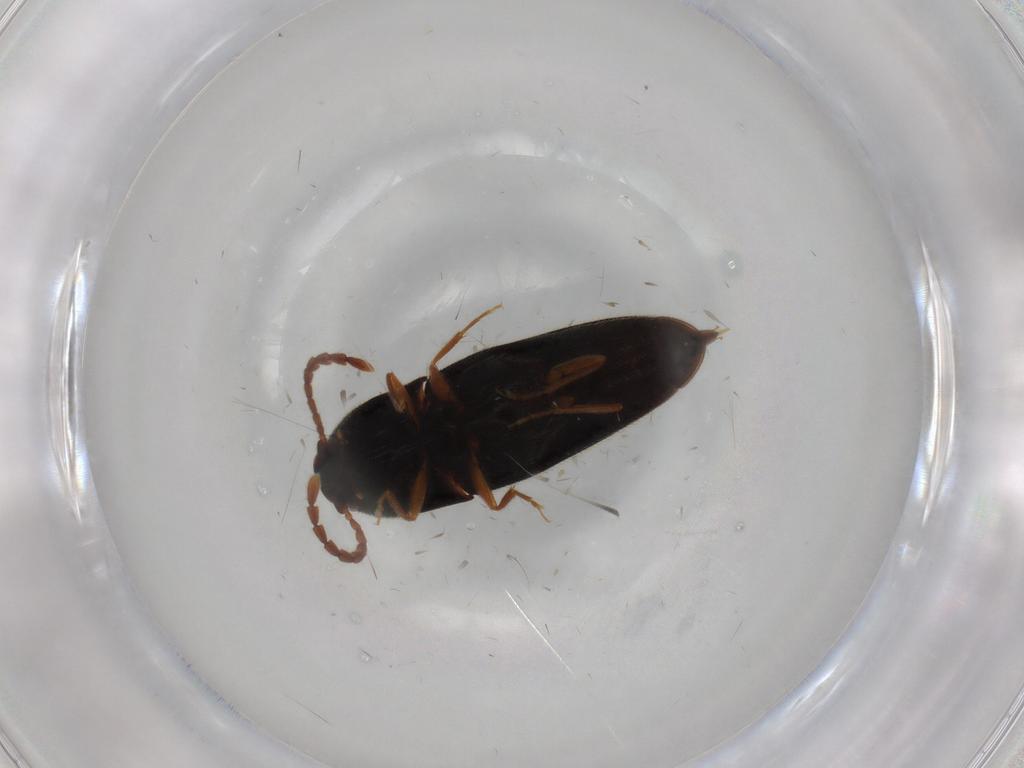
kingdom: Animalia
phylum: Arthropoda
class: Insecta
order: Coleoptera
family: Elateridae
